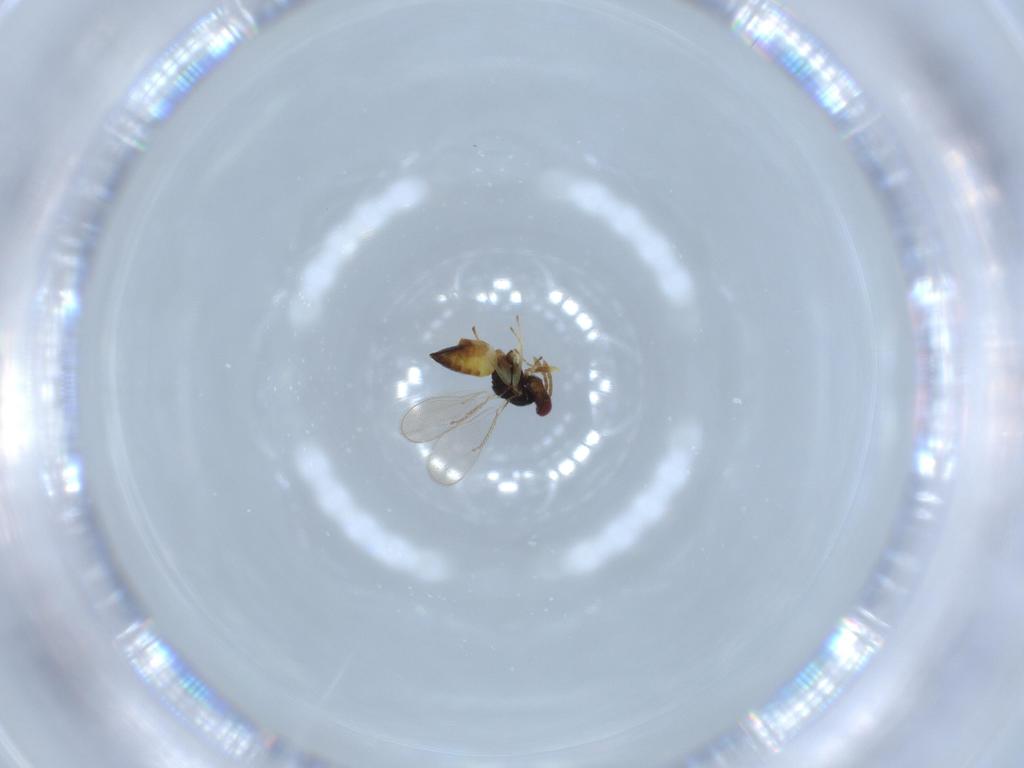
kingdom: Animalia
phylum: Arthropoda
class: Insecta
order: Hymenoptera
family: Eulophidae
